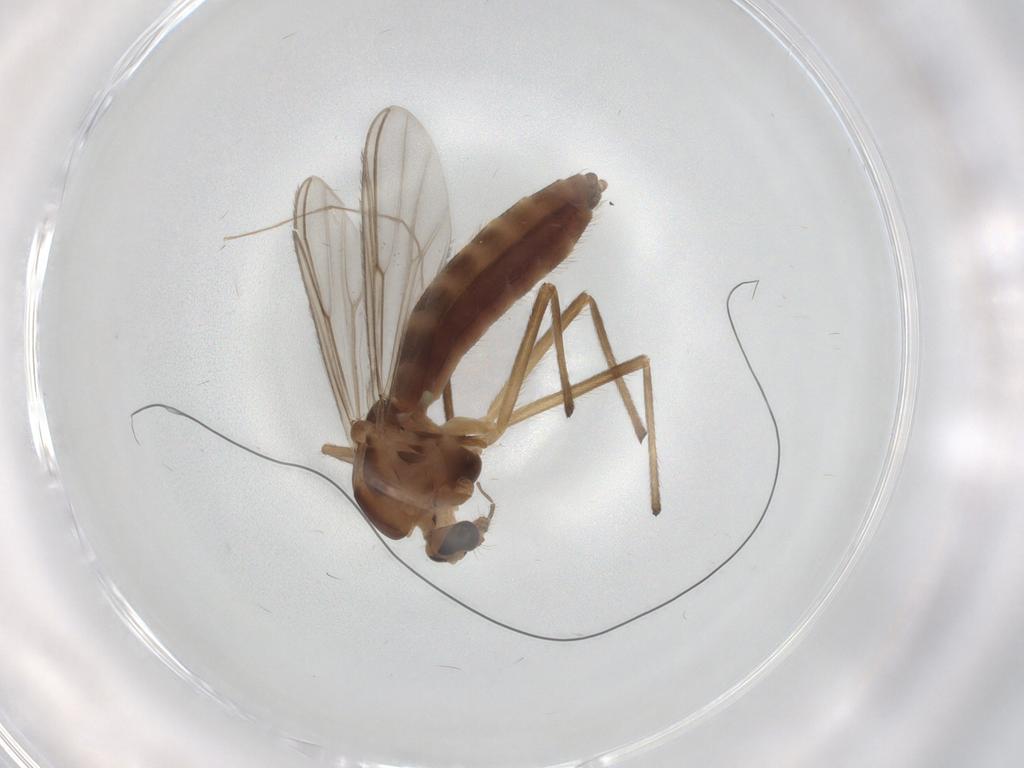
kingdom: Animalia
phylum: Arthropoda
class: Insecta
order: Diptera
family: Chironomidae
